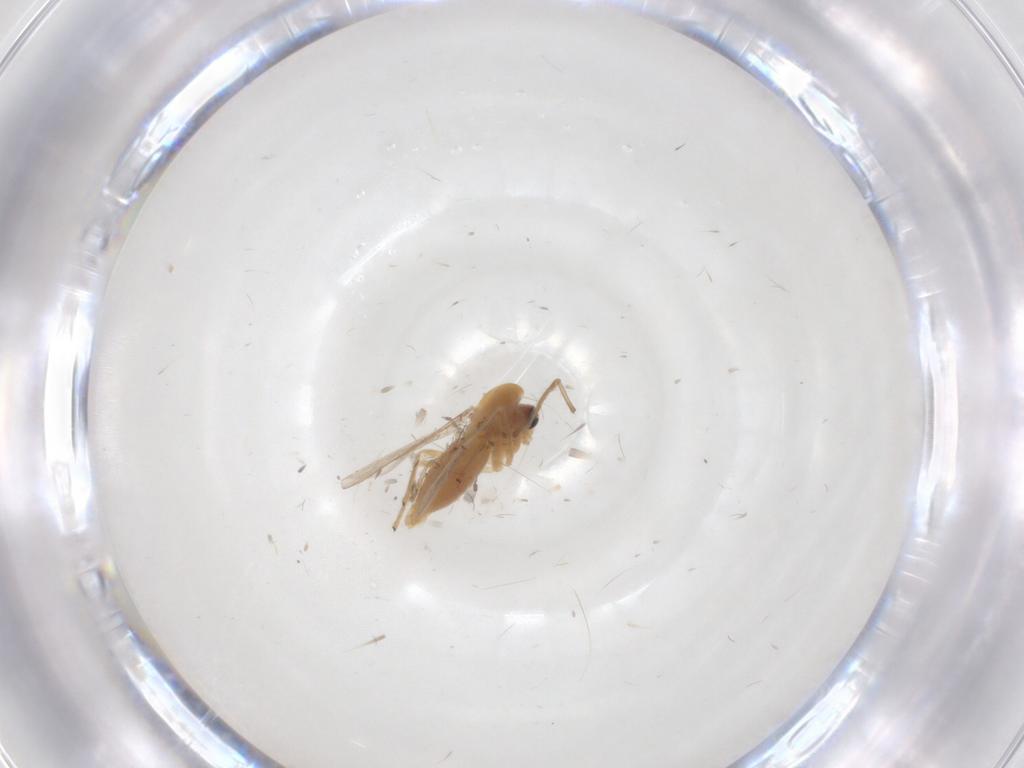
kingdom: Animalia
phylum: Arthropoda
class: Insecta
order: Diptera
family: Chironomidae
